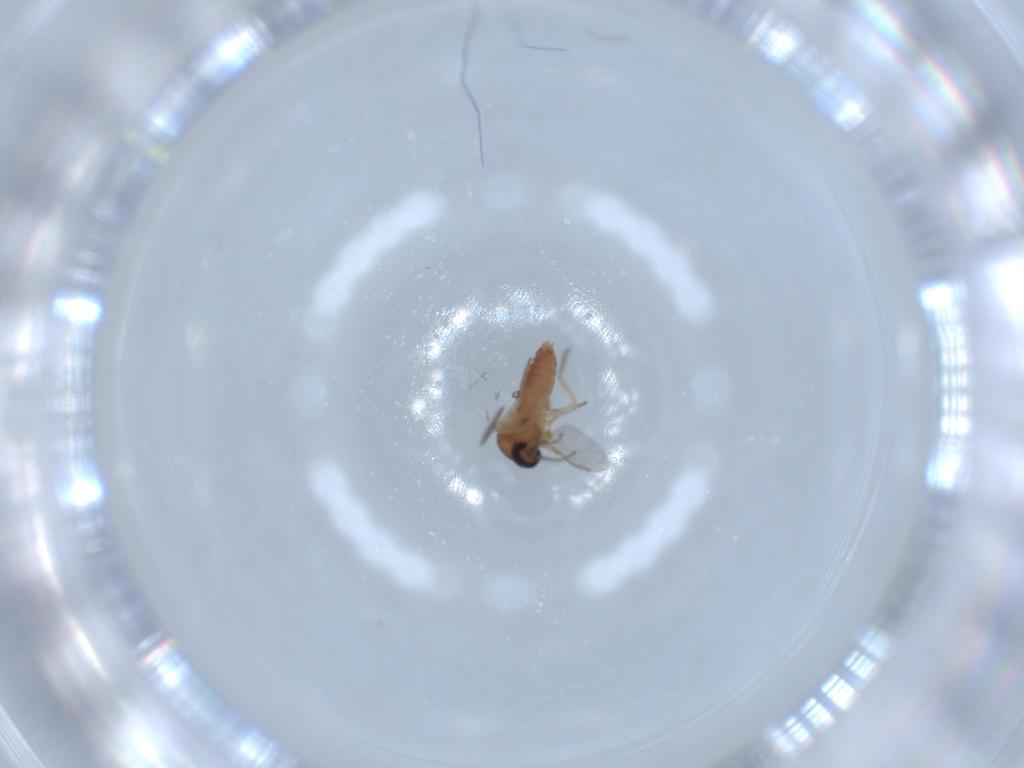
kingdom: Animalia
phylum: Arthropoda
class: Insecta
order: Diptera
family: Ceratopogonidae
